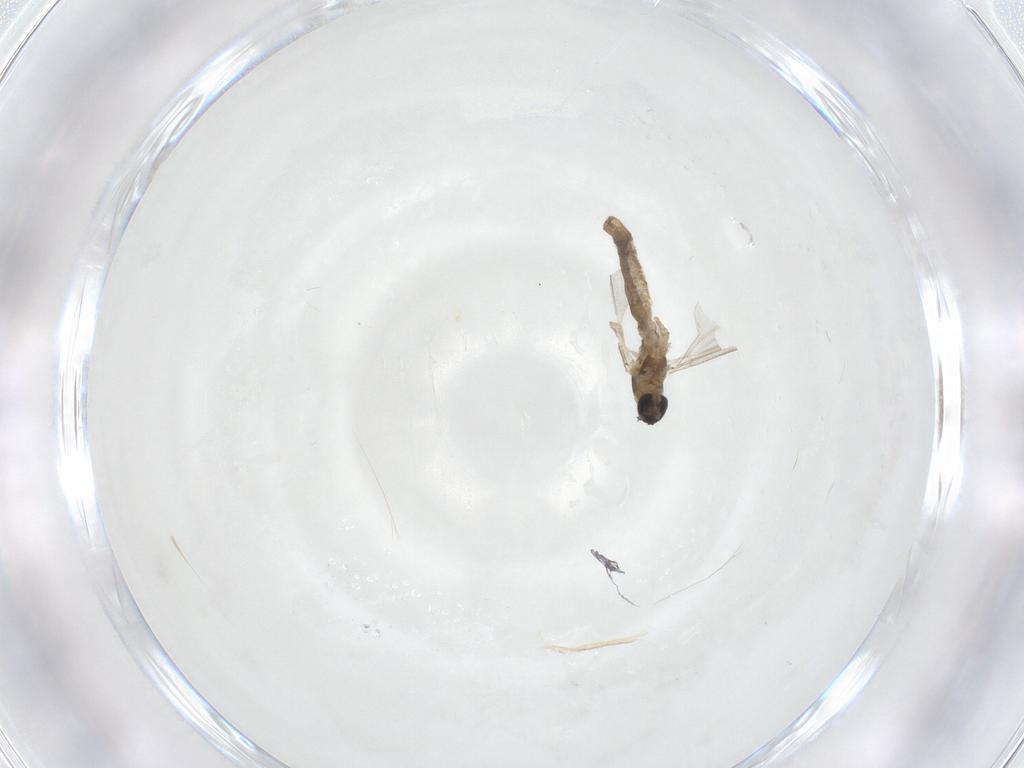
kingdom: Animalia
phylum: Arthropoda
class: Insecta
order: Diptera
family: Cecidomyiidae
